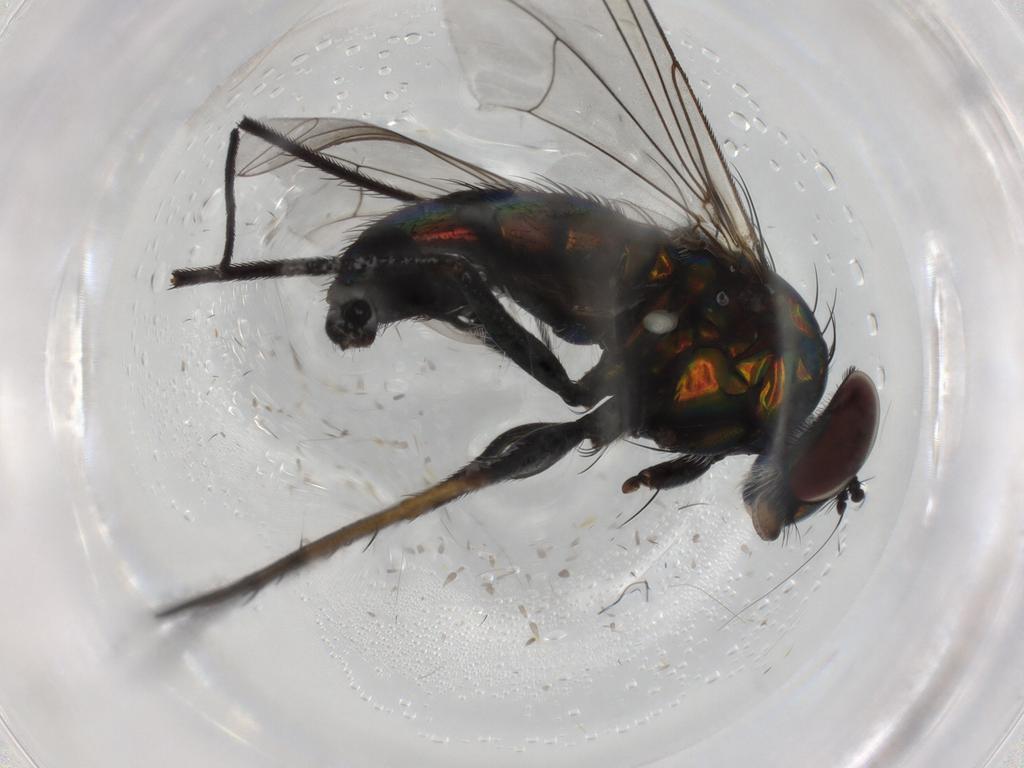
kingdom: Animalia
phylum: Arthropoda
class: Insecta
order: Diptera
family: Dolichopodidae
